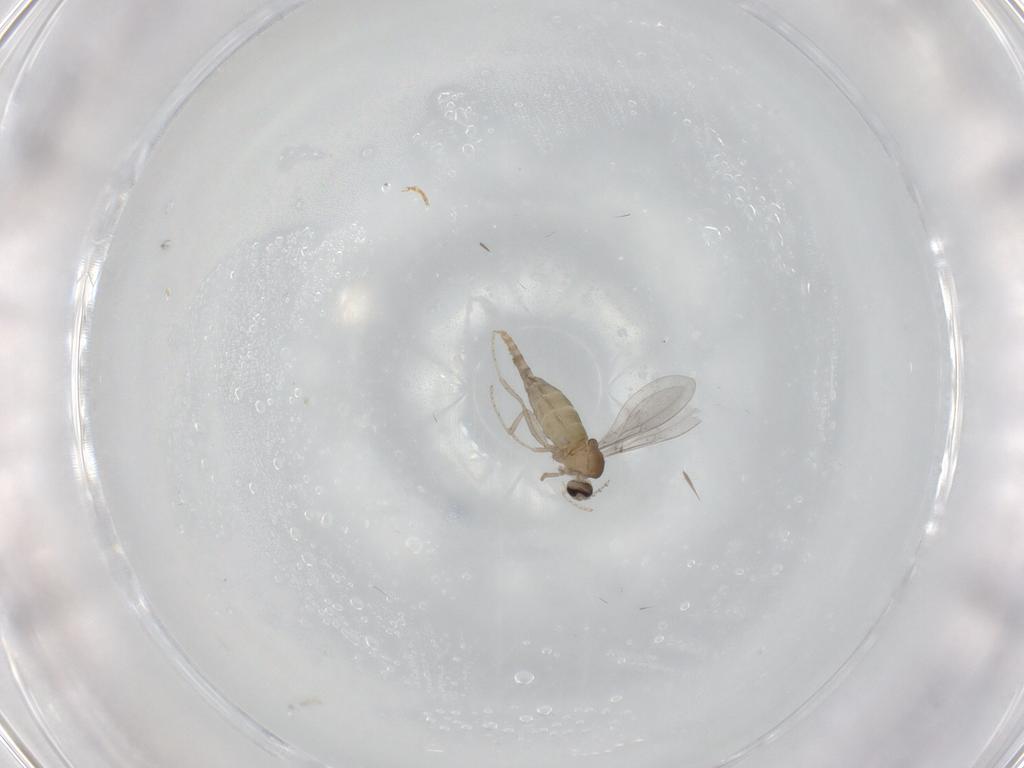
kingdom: Animalia
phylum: Arthropoda
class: Insecta
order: Diptera
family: Cecidomyiidae
